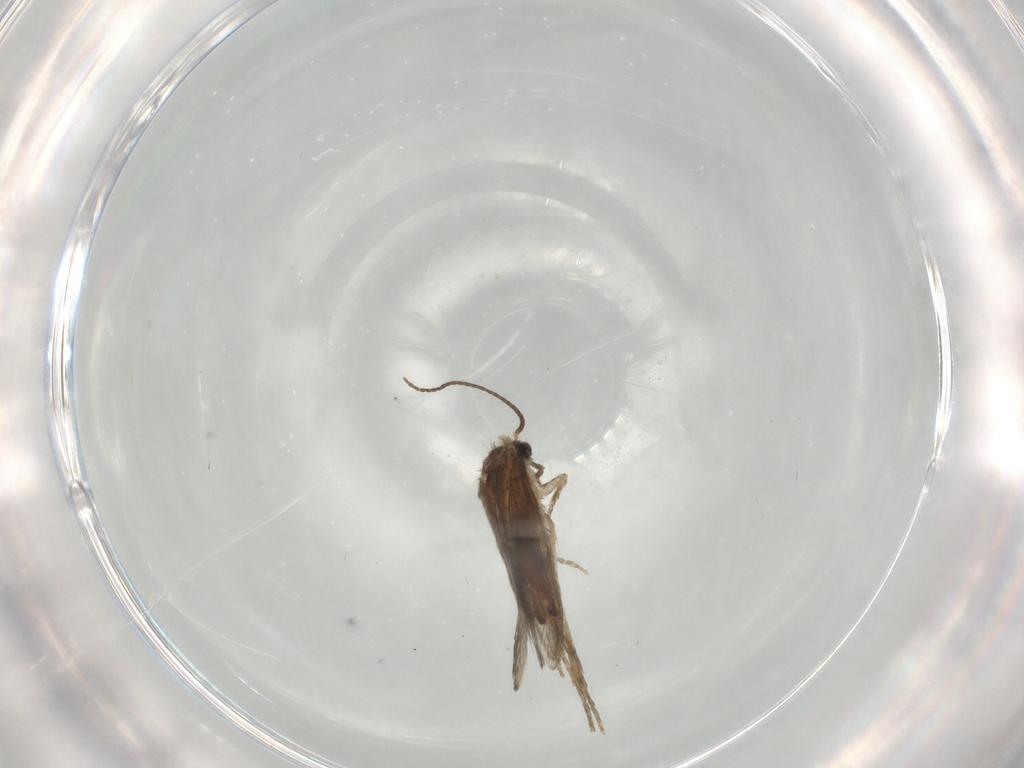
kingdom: Animalia
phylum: Arthropoda
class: Insecta
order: Trichoptera
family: Hydroptilidae
